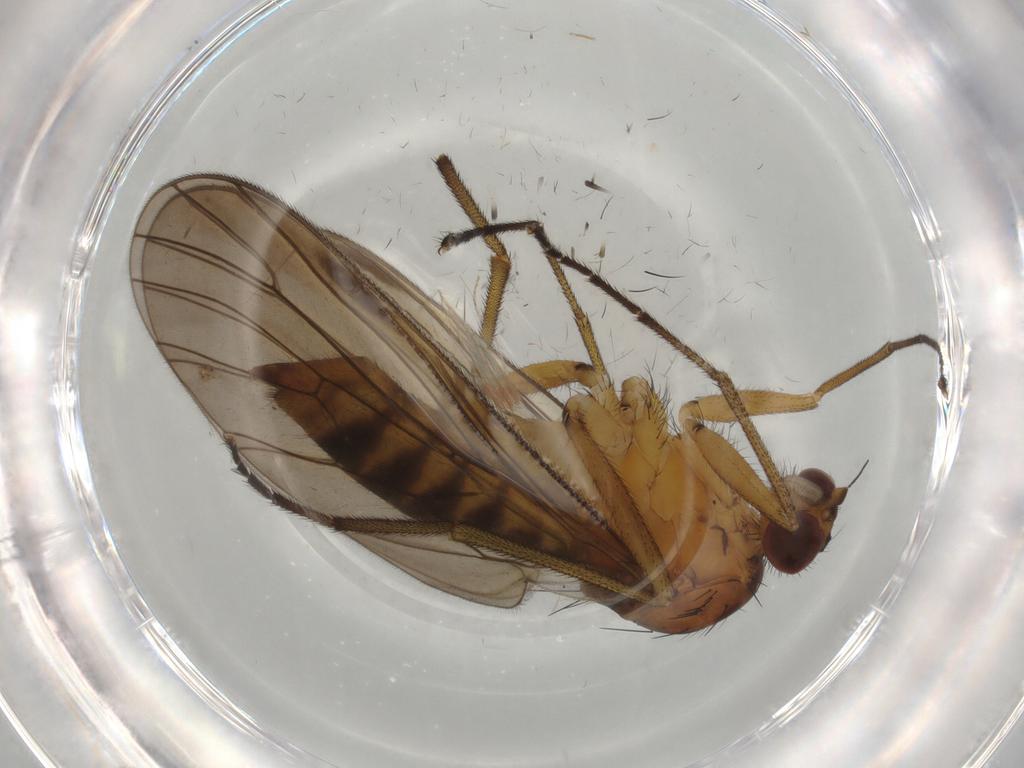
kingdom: Animalia
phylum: Arthropoda
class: Insecta
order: Diptera
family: Brachystomatidae
